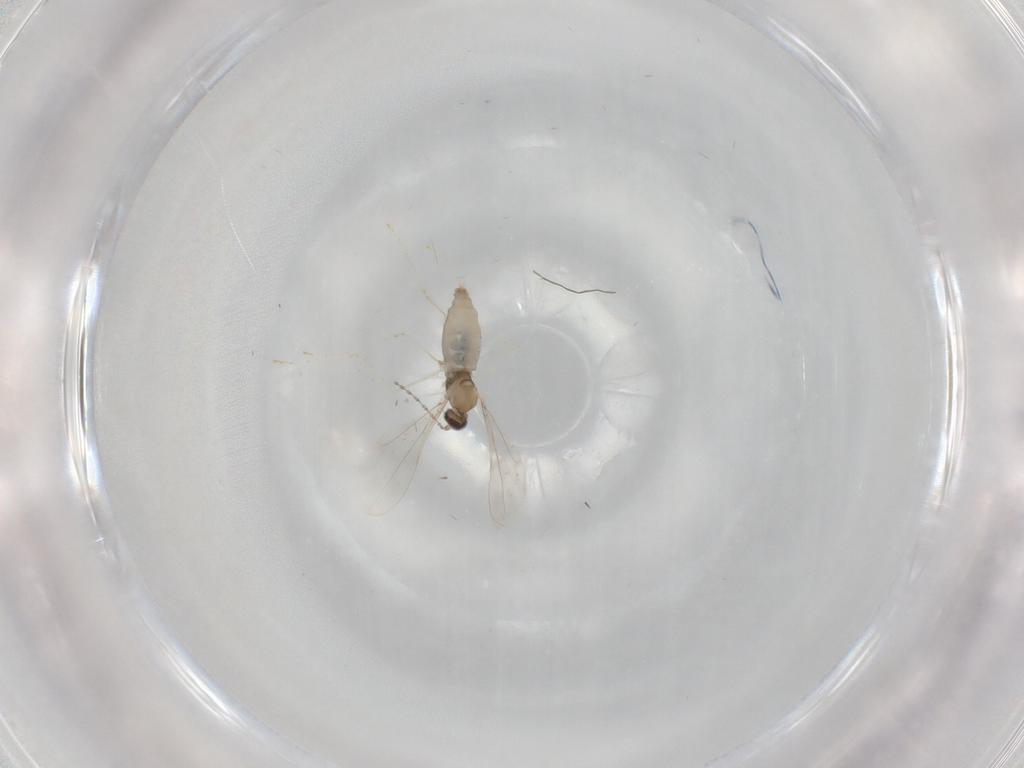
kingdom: Animalia
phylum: Arthropoda
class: Insecta
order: Diptera
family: Cecidomyiidae
